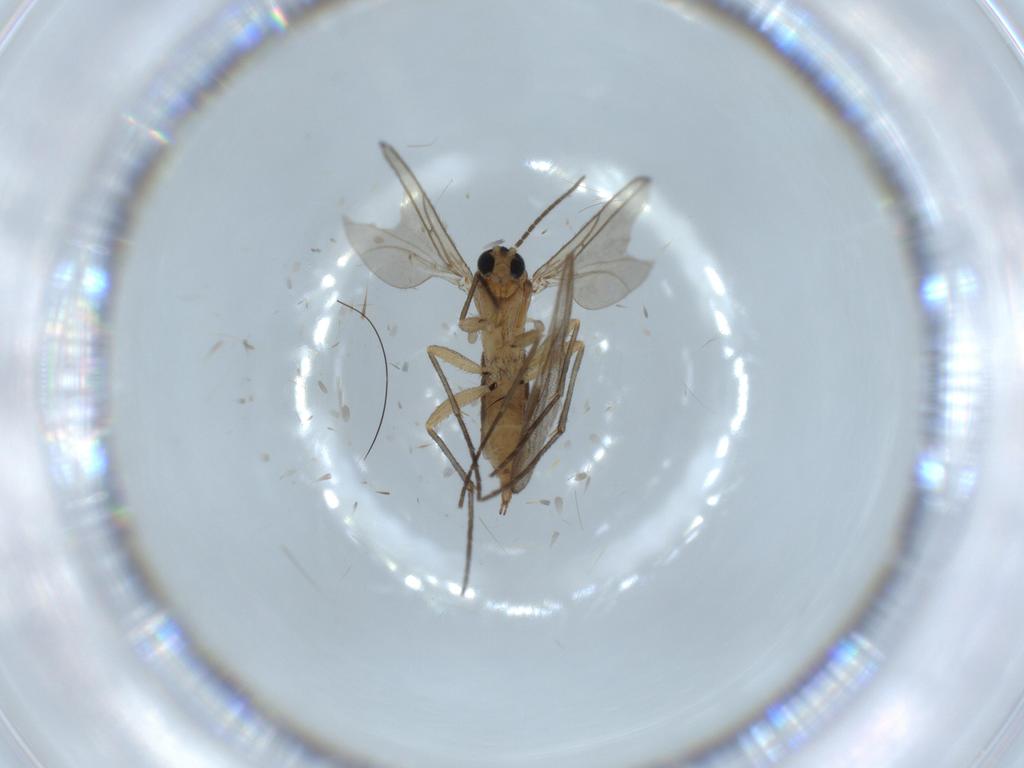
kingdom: Animalia
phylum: Arthropoda
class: Insecta
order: Diptera
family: Sciaridae
